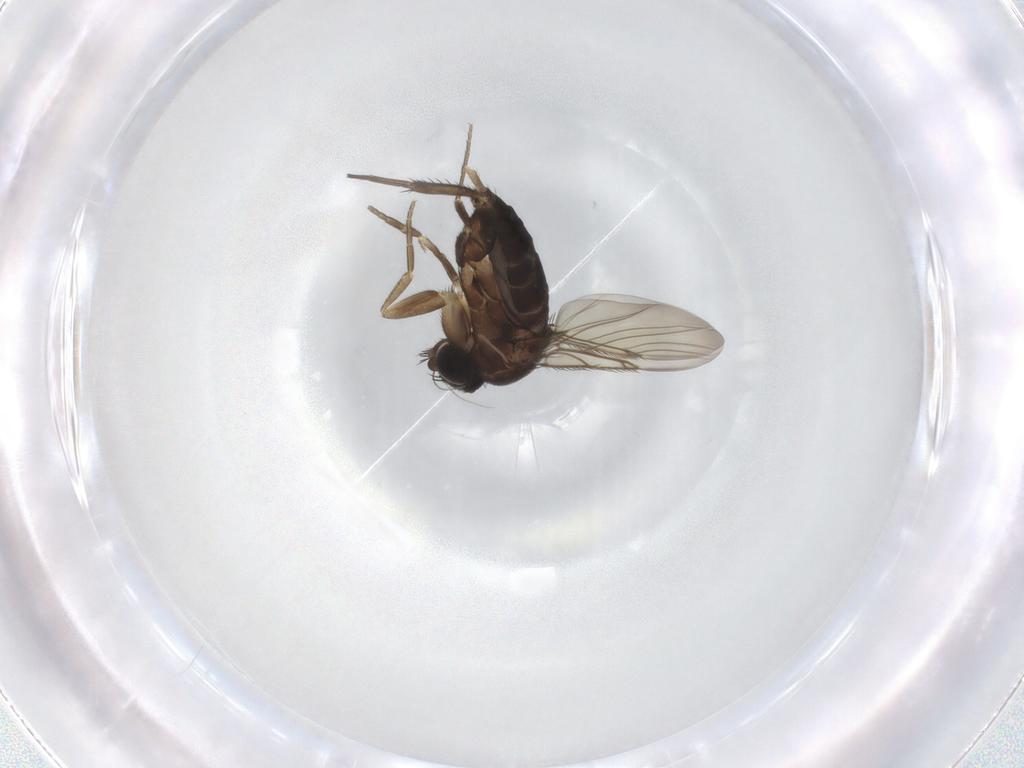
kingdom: Animalia
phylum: Arthropoda
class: Insecta
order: Diptera
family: Phoridae
